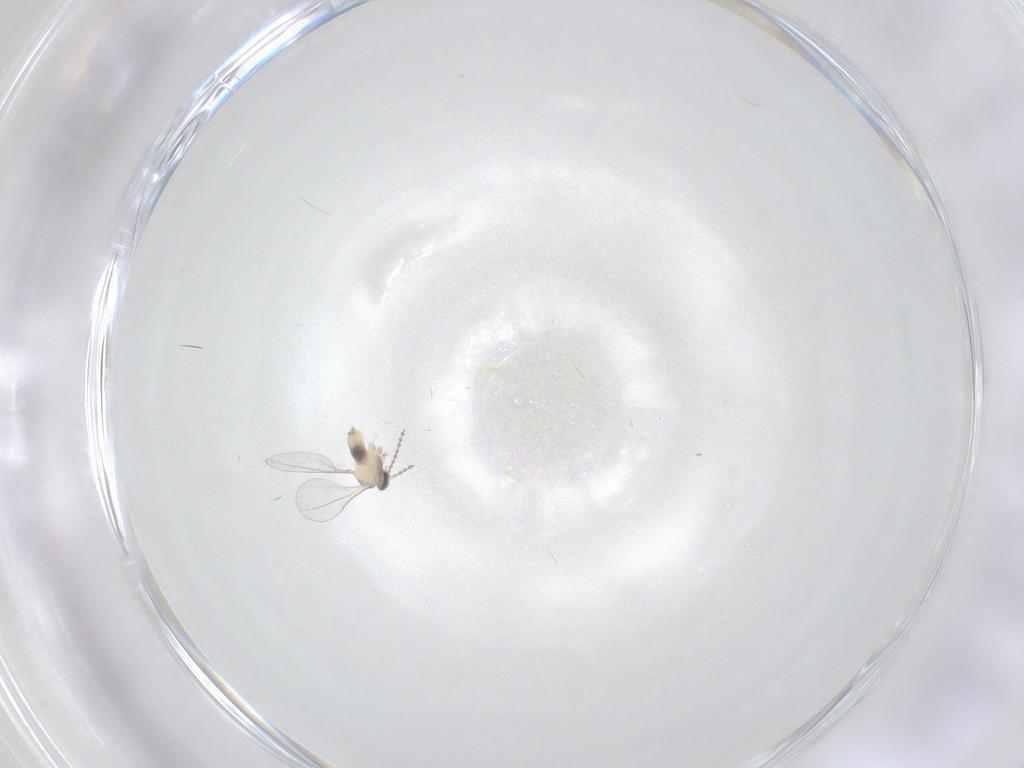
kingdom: Animalia
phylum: Arthropoda
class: Insecta
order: Diptera
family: Cecidomyiidae
